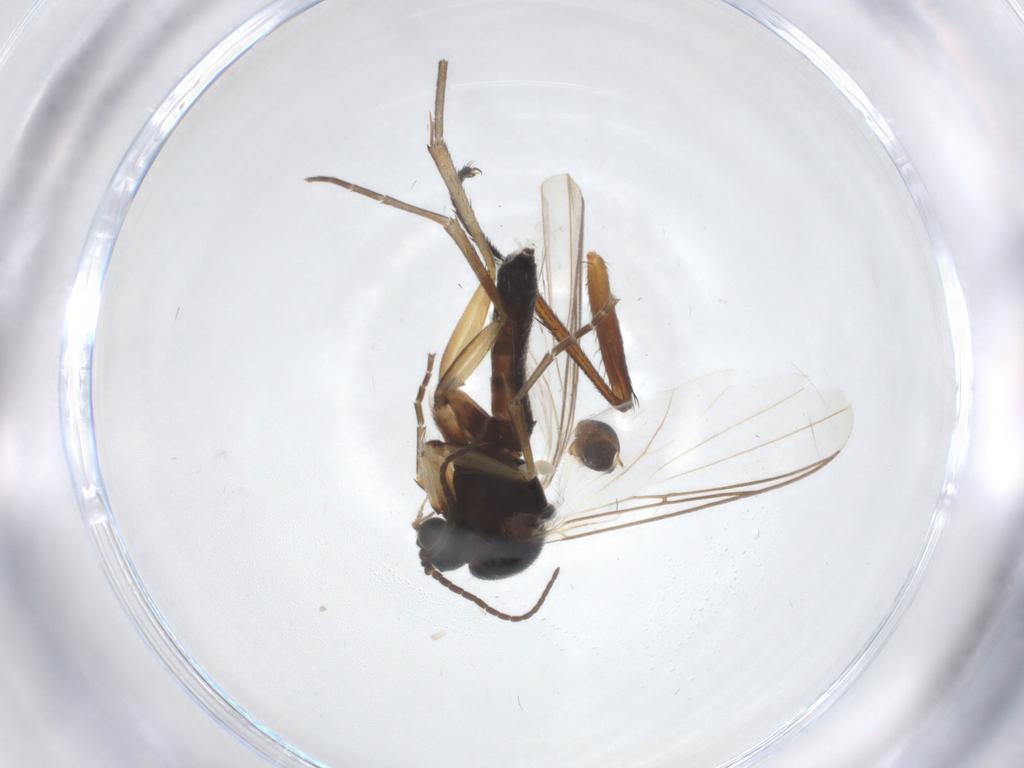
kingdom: Animalia
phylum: Arthropoda
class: Insecta
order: Diptera
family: Anthomyiidae
